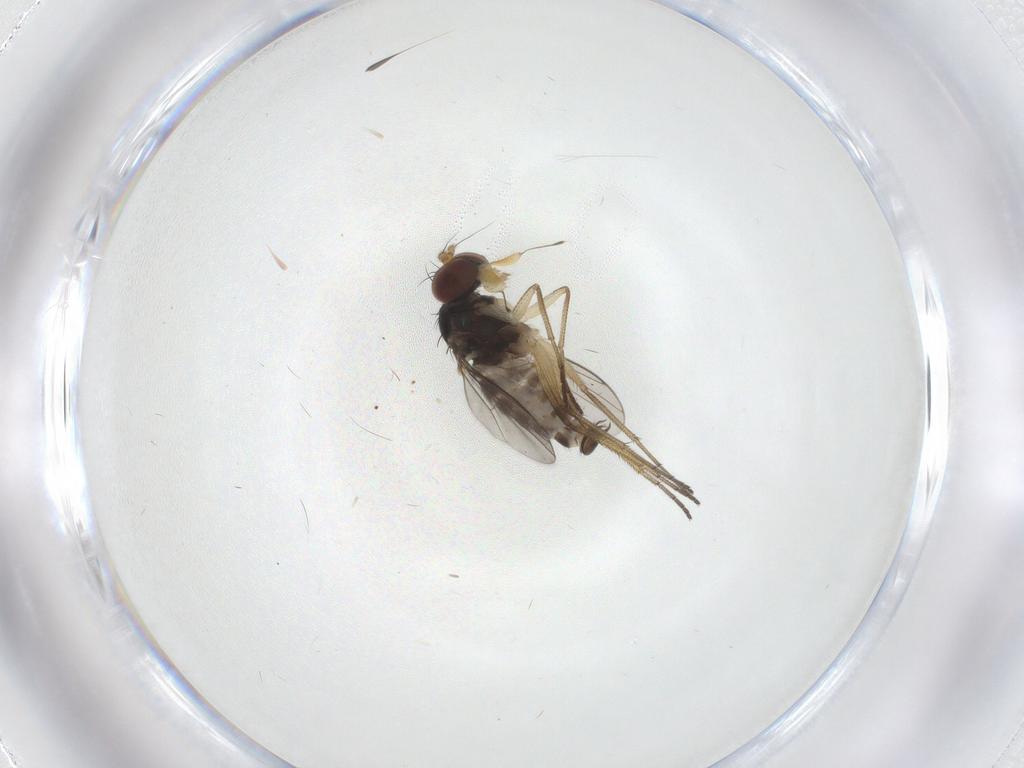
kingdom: Animalia
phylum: Arthropoda
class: Insecta
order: Diptera
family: Dolichopodidae
